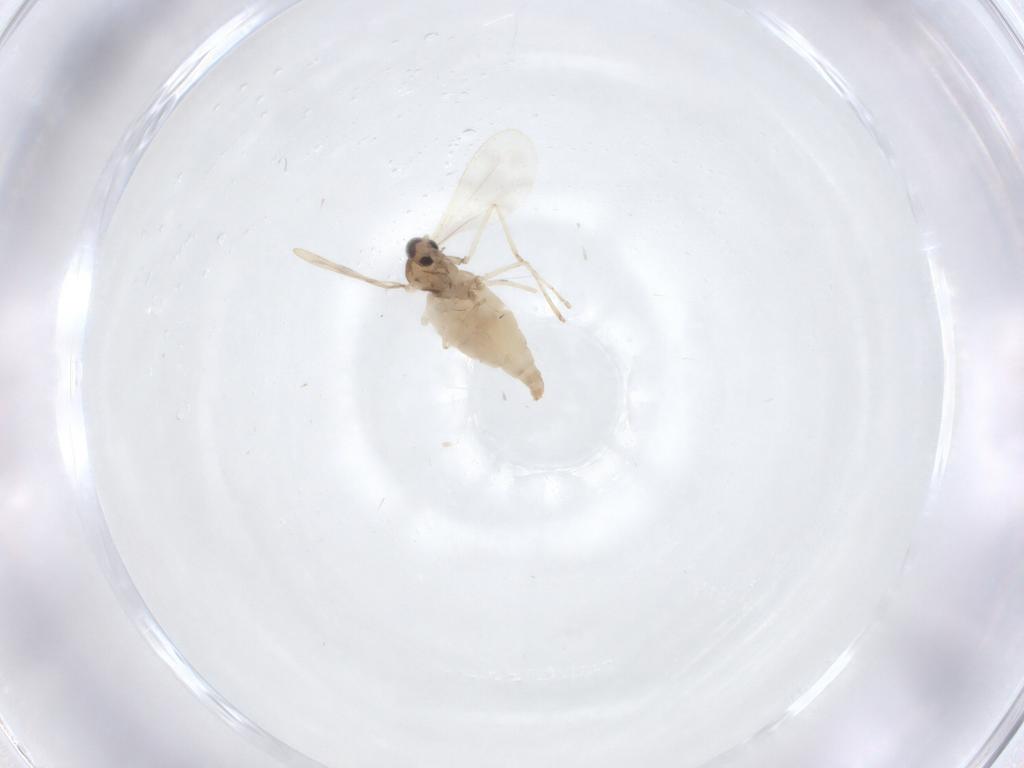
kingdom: Animalia
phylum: Arthropoda
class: Insecta
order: Diptera
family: Cecidomyiidae
